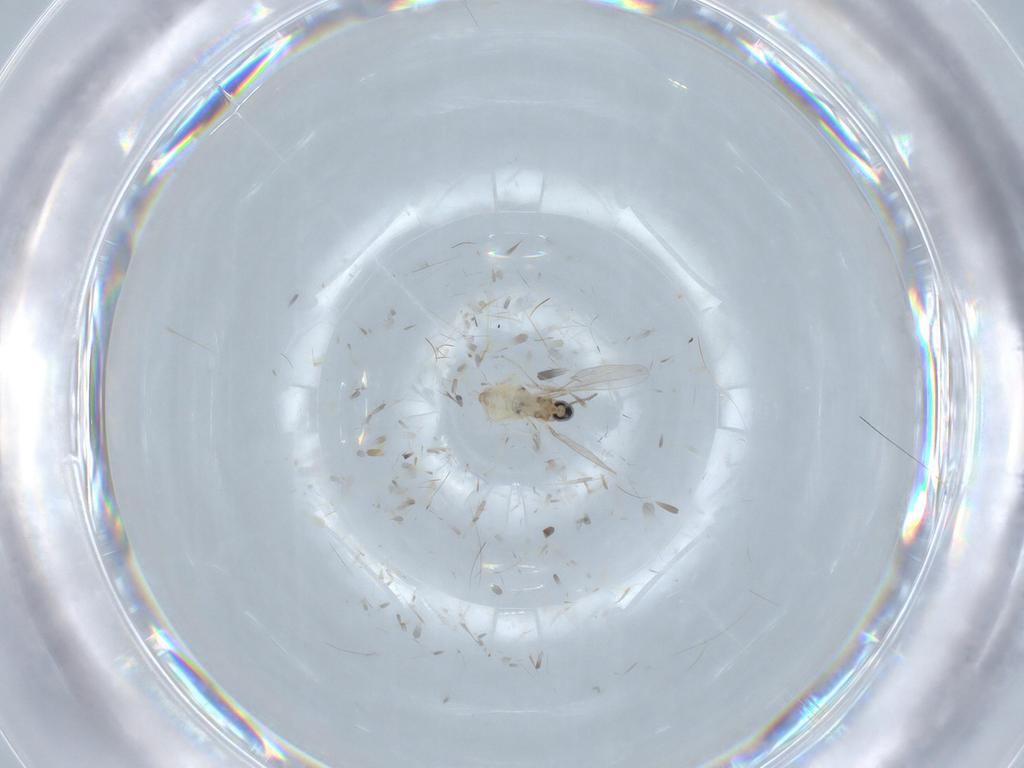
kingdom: Animalia
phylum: Arthropoda
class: Insecta
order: Diptera
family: Cecidomyiidae
